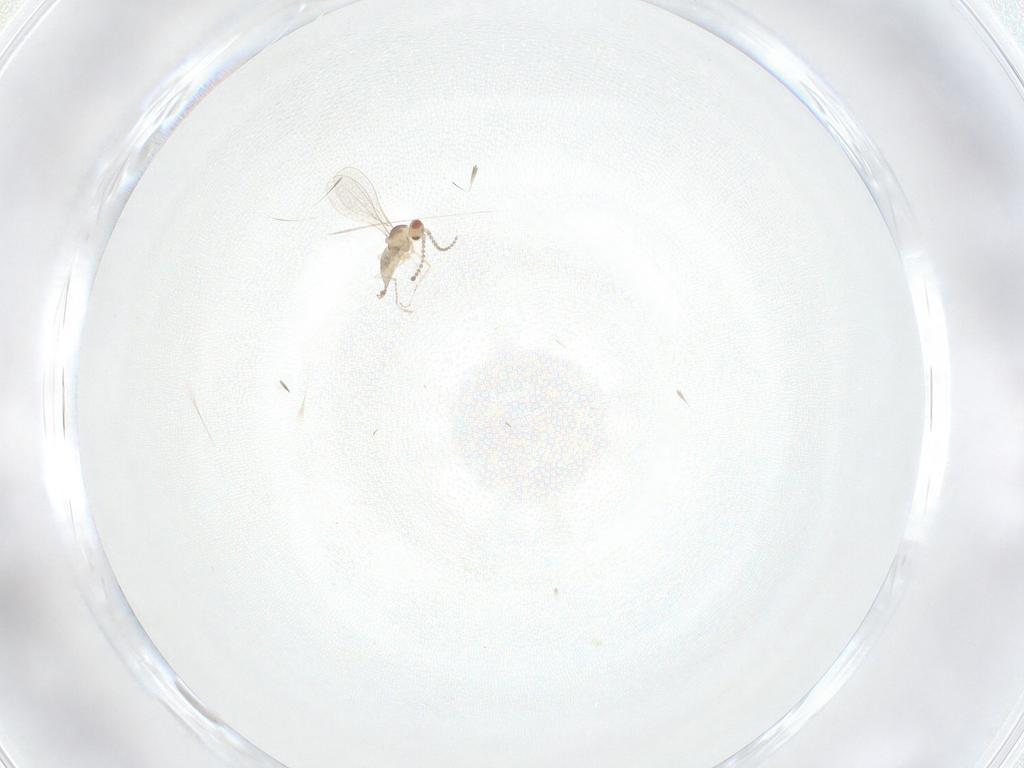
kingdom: Animalia
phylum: Arthropoda
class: Insecta
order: Diptera
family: Cecidomyiidae
